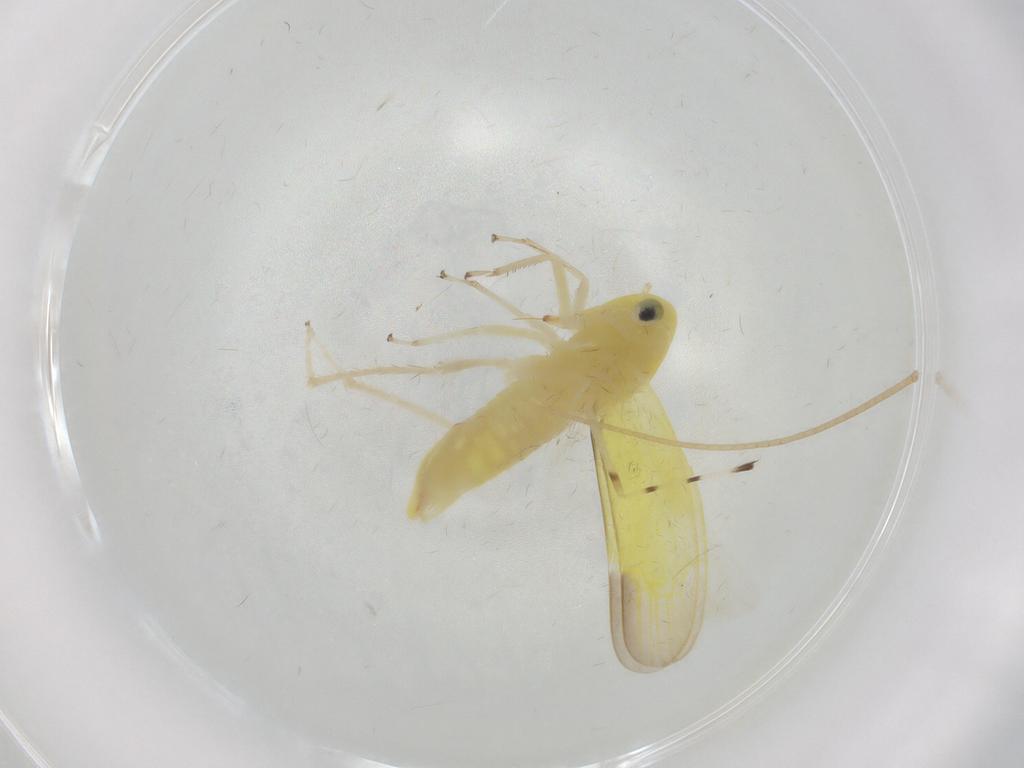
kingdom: Animalia
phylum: Arthropoda
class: Insecta
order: Hemiptera
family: Cicadellidae
